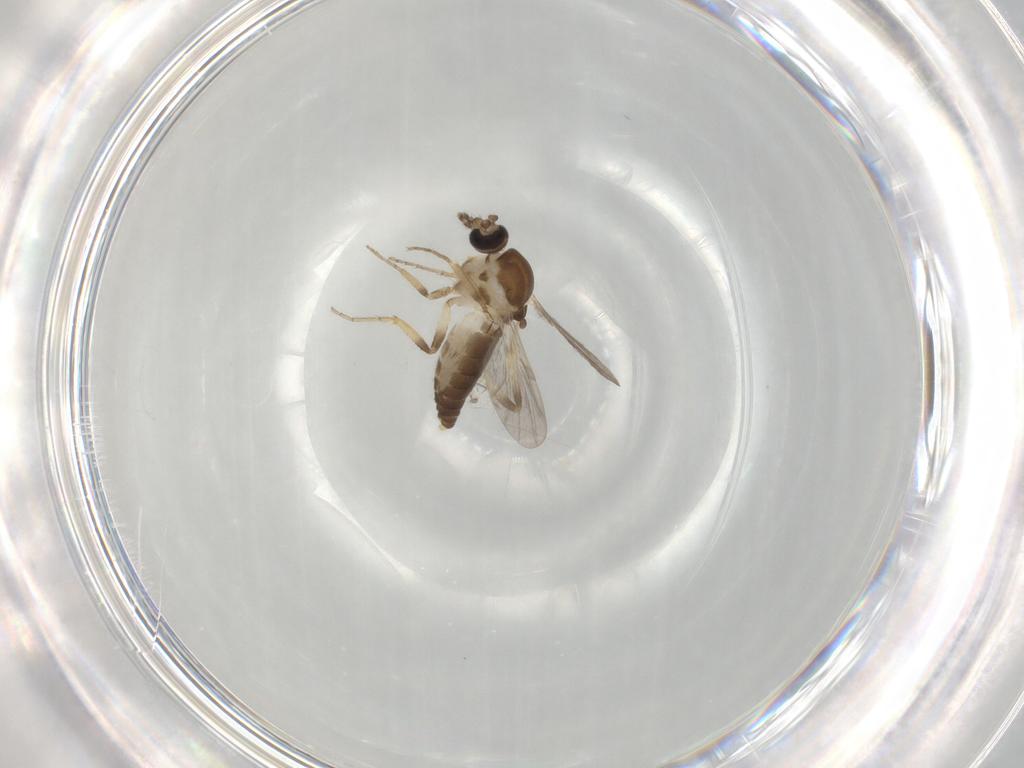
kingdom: Animalia
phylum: Arthropoda
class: Insecta
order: Diptera
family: Ceratopogonidae
